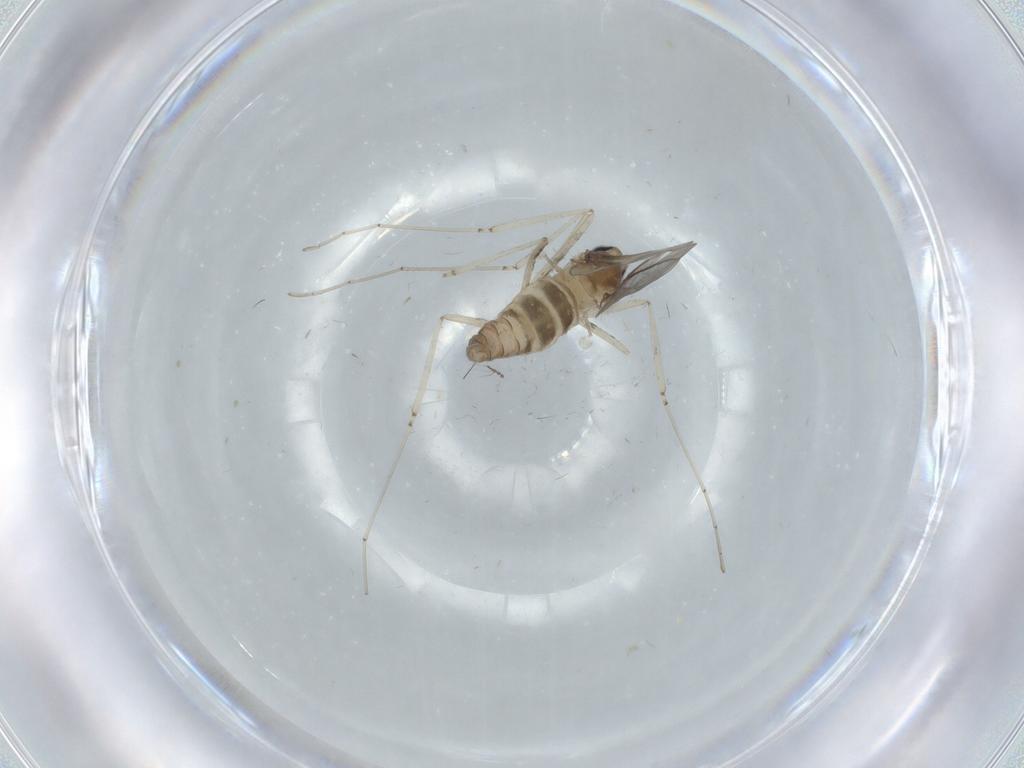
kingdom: Animalia
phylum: Arthropoda
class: Insecta
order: Diptera
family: Cecidomyiidae
